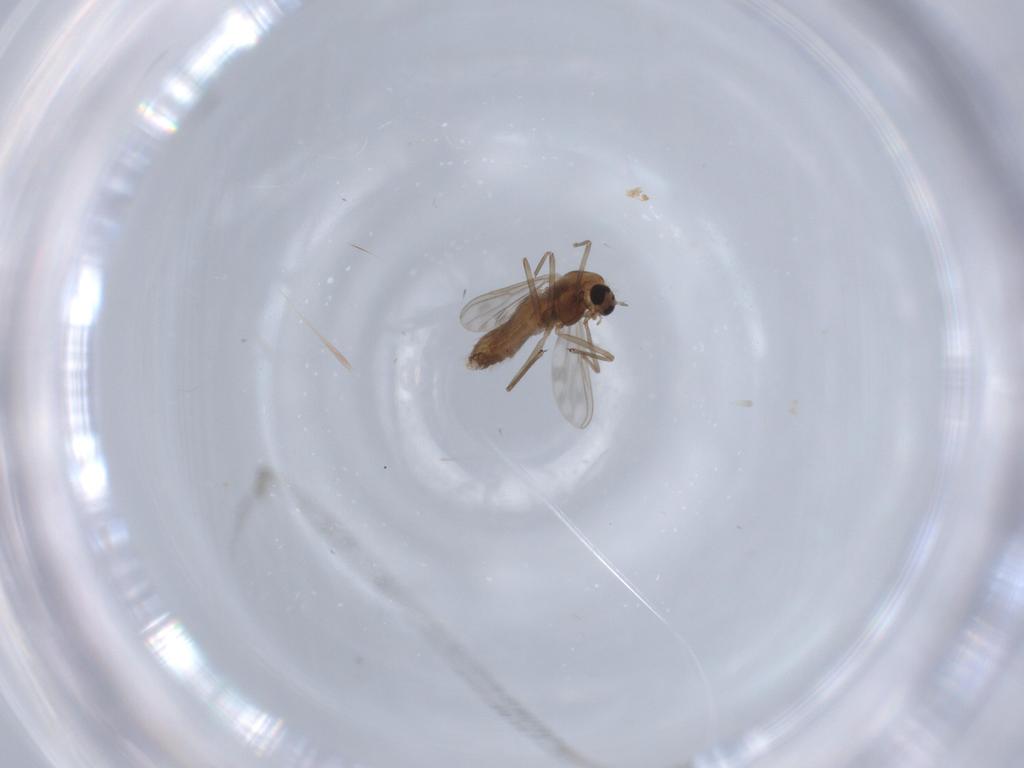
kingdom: Animalia
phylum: Arthropoda
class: Insecta
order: Diptera
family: Chironomidae
